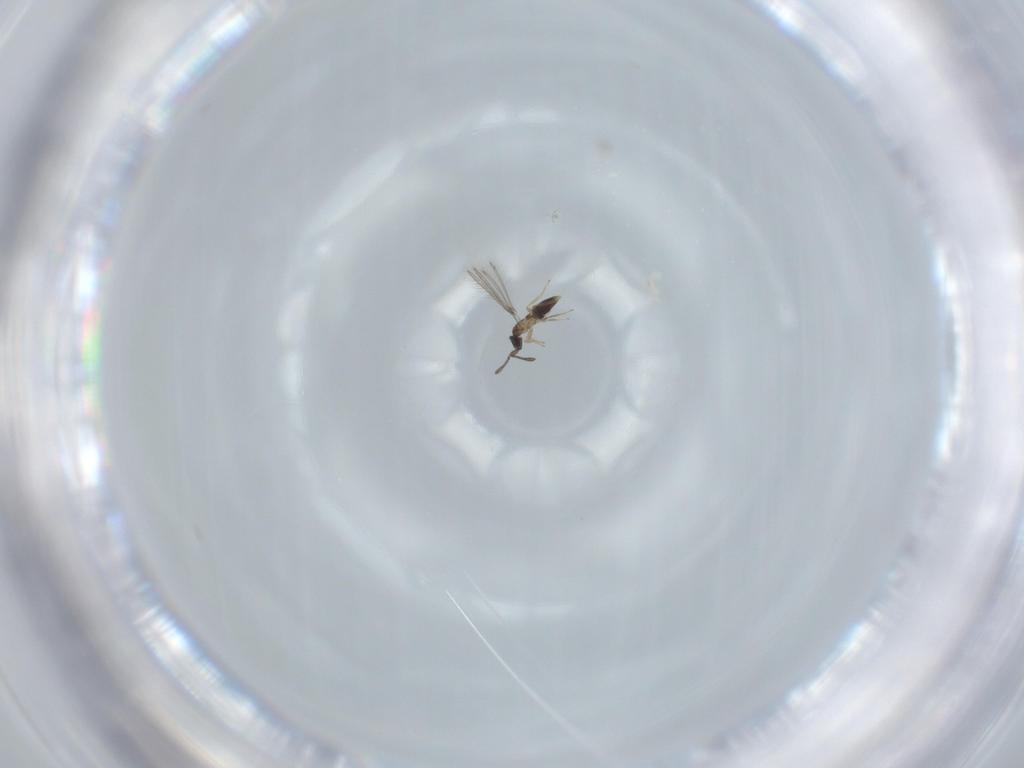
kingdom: Animalia
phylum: Arthropoda
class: Insecta
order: Hymenoptera
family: Mymaridae
